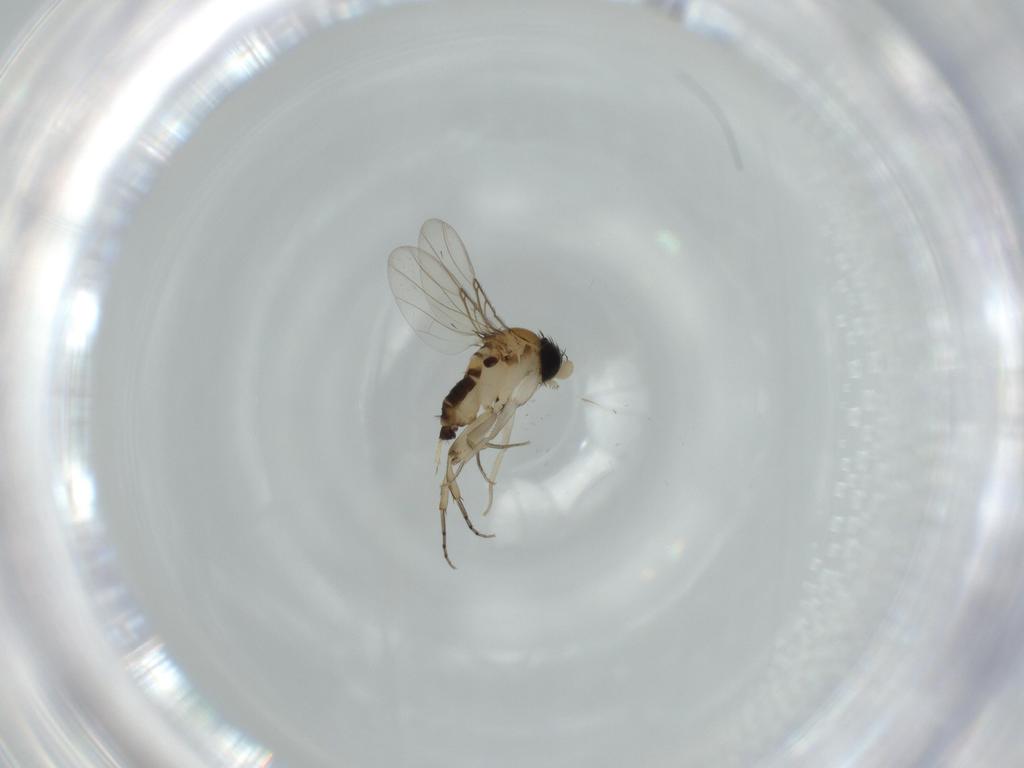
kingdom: Animalia
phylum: Arthropoda
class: Insecta
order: Diptera
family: Phoridae
